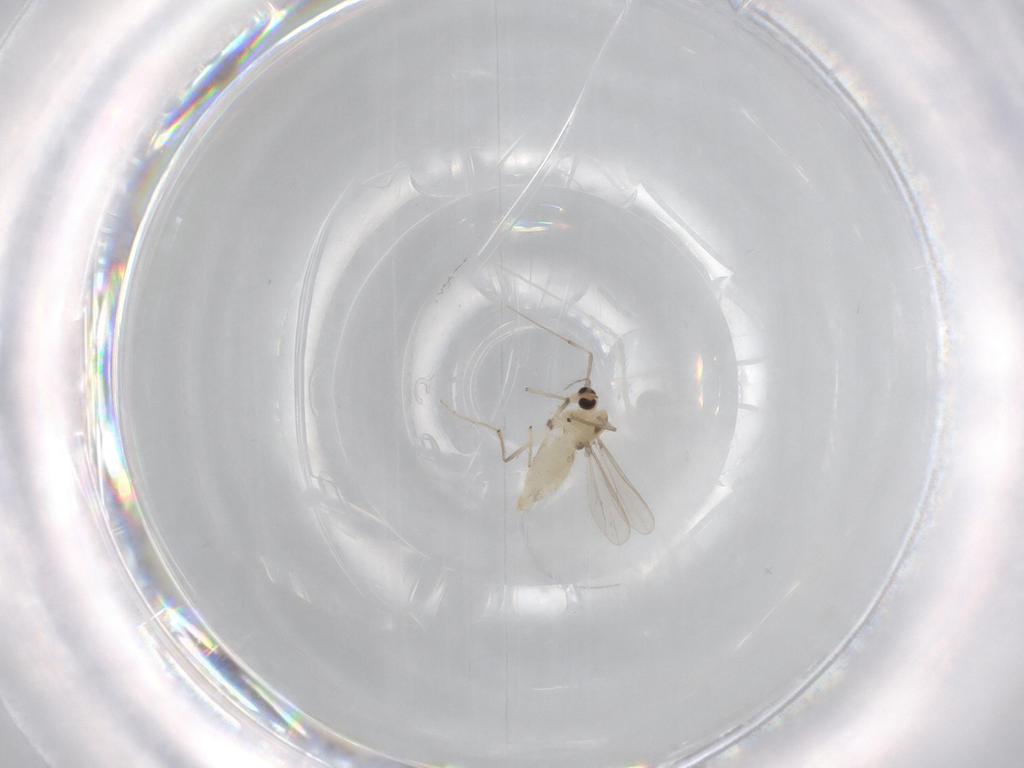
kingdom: Animalia
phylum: Arthropoda
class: Insecta
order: Diptera
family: Chironomidae
